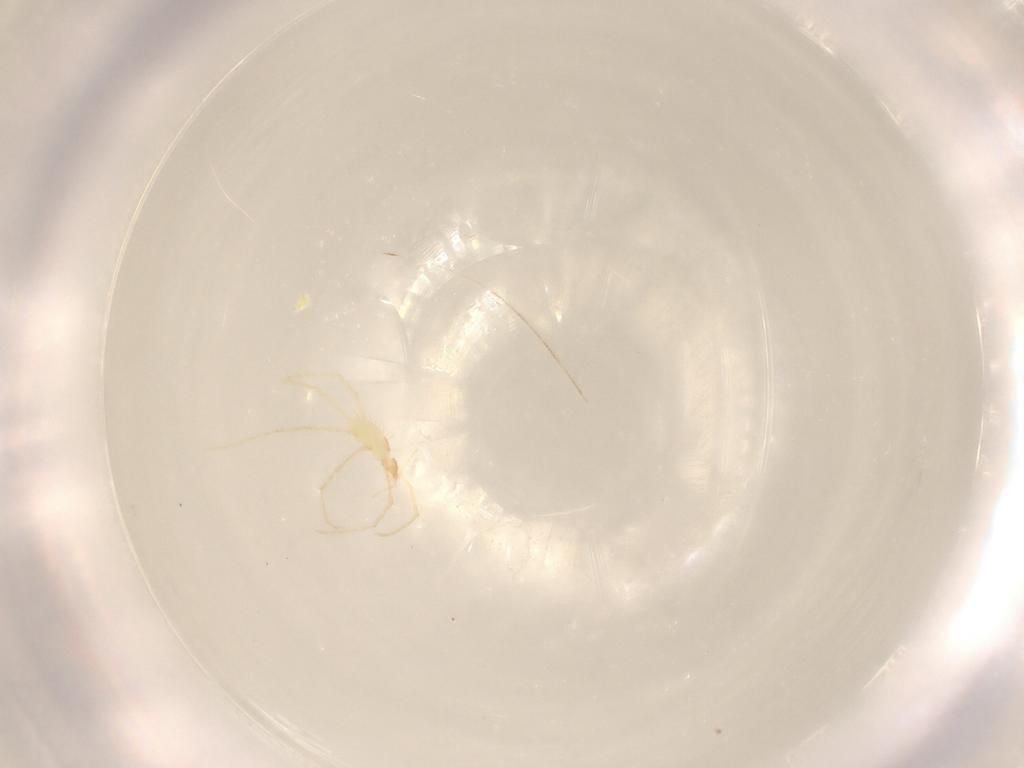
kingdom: Animalia
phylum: Arthropoda
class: Arachnida
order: Trombidiformes
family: Erythraeidae
